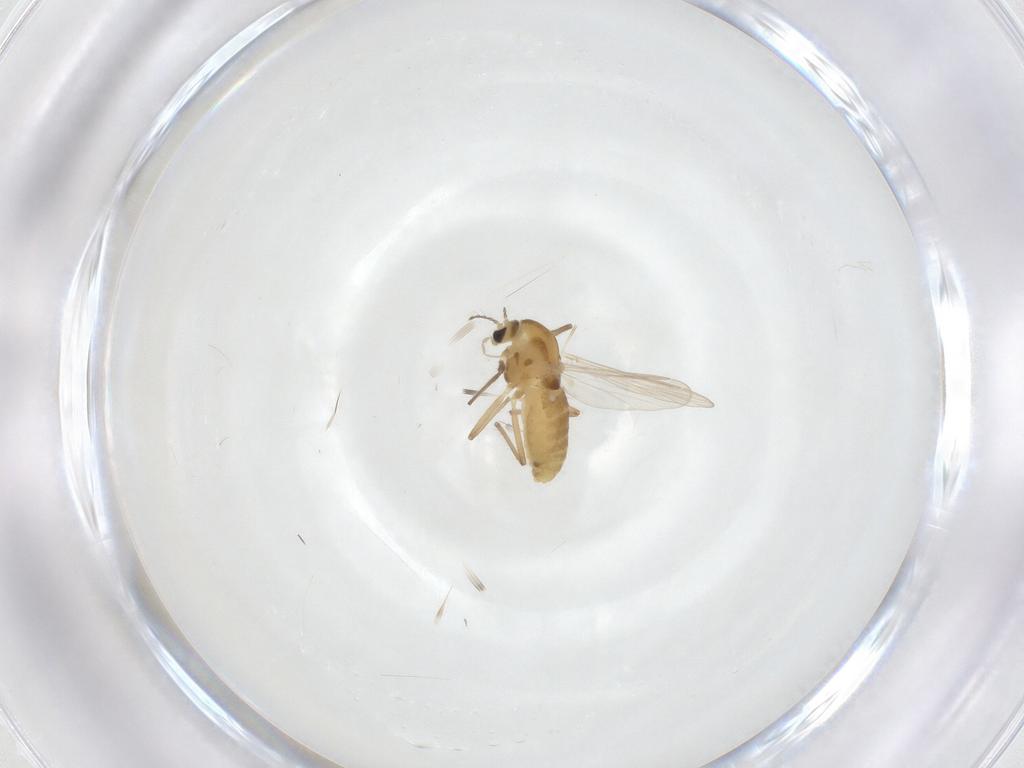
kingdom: Animalia
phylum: Arthropoda
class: Insecta
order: Diptera
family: Chironomidae
